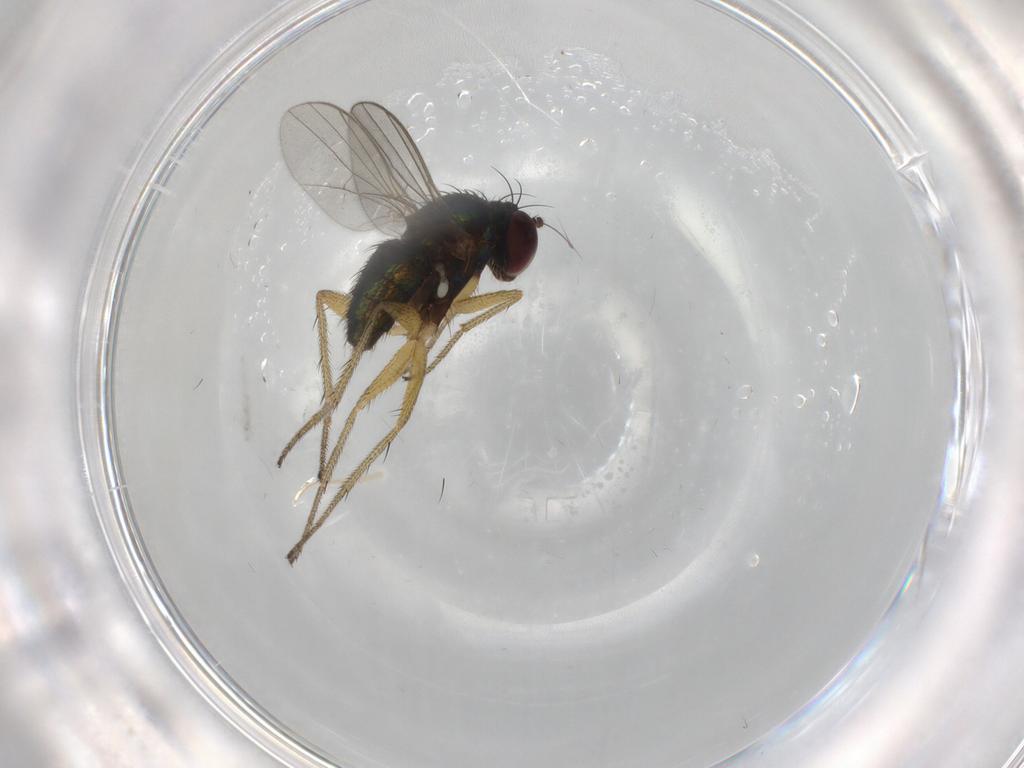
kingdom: Animalia
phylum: Arthropoda
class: Insecta
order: Diptera
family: Dolichopodidae
